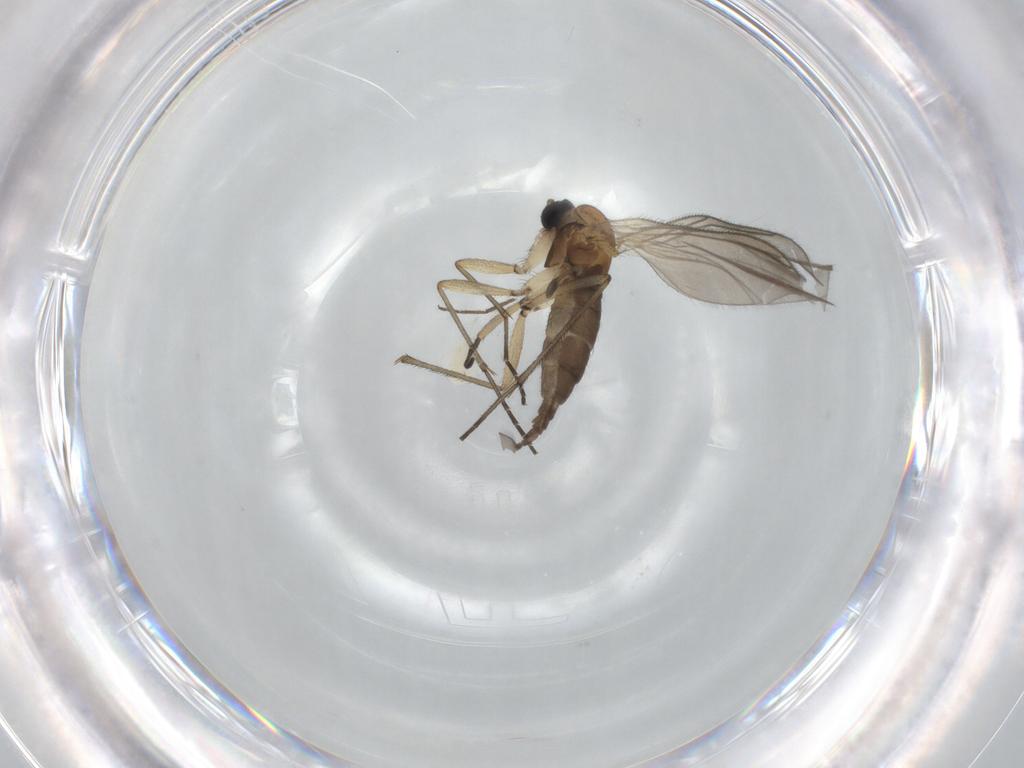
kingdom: Animalia
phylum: Arthropoda
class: Insecta
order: Diptera
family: Sciaridae
